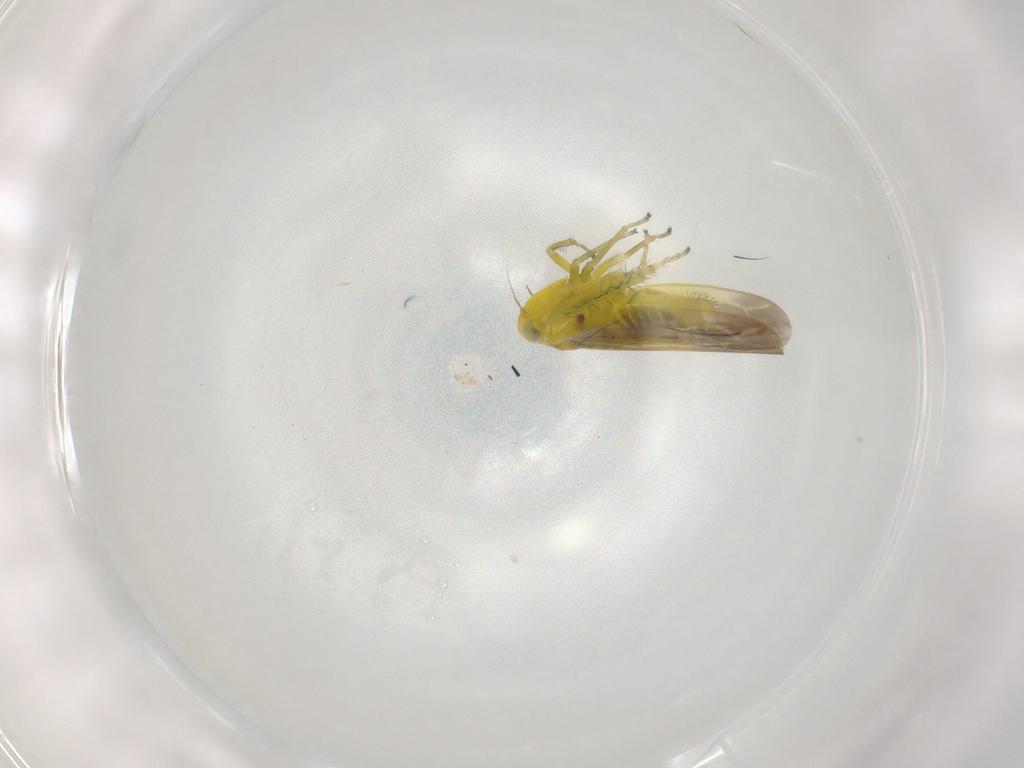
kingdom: Animalia
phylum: Arthropoda
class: Insecta
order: Hemiptera
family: Cicadellidae
